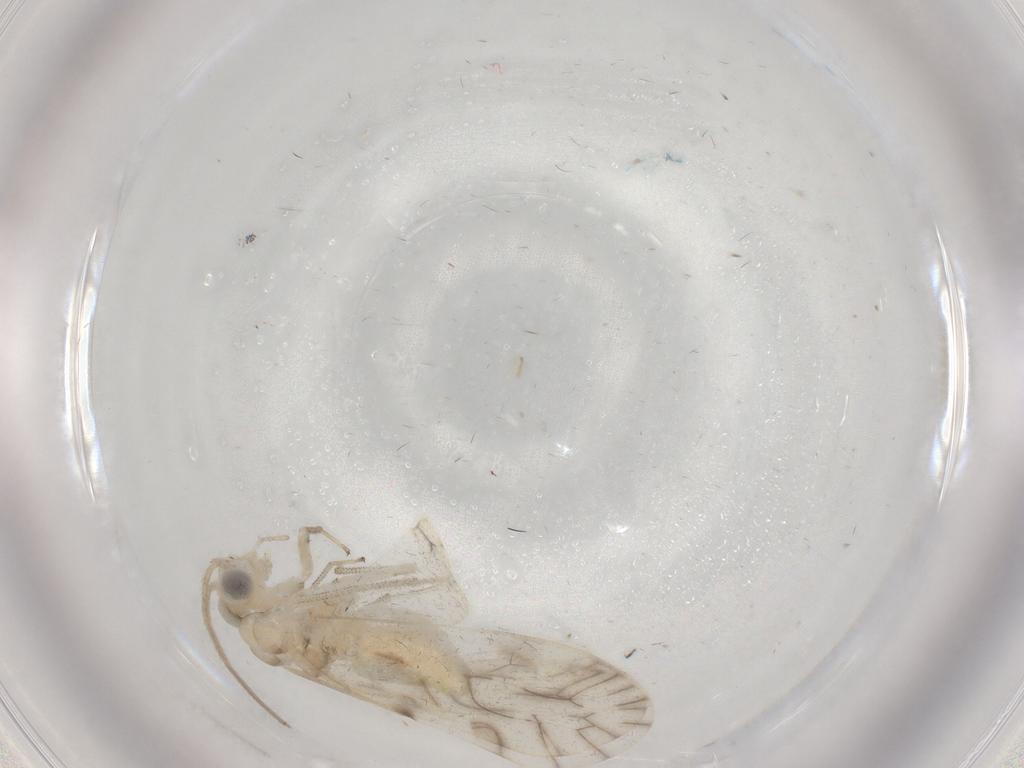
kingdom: Animalia
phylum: Arthropoda
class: Insecta
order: Psocodea
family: Caeciliusidae
